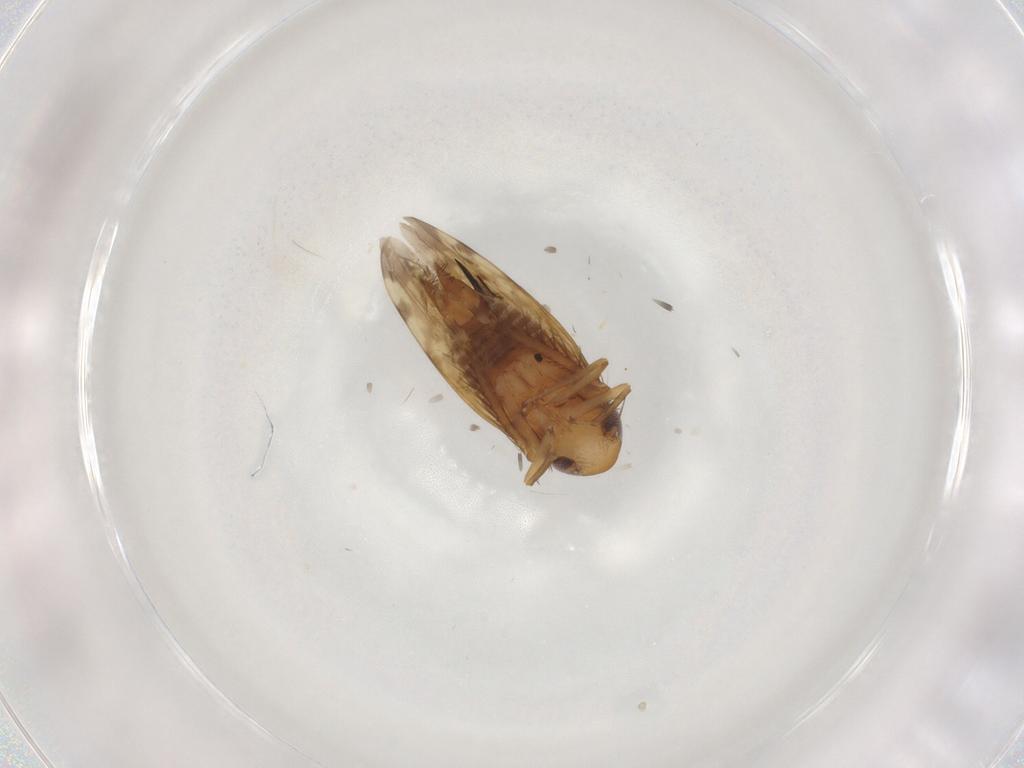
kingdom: Animalia
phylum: Arthropoda
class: Insecta
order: Hemiptera
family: Cicadellidae
